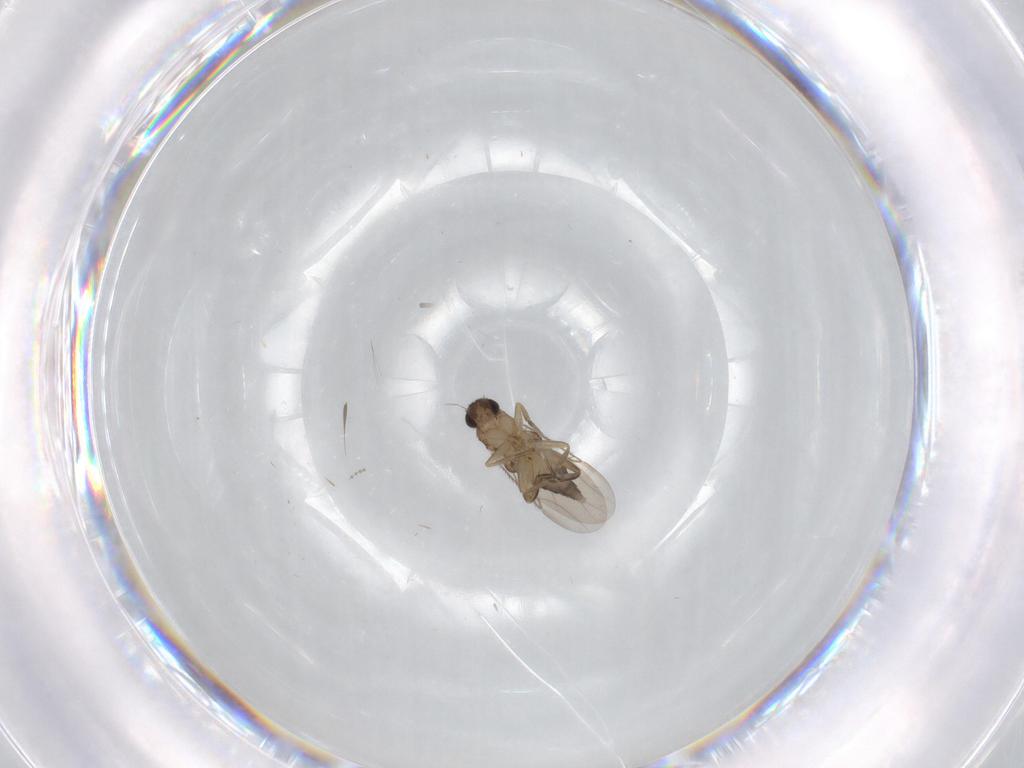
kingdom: Animalia
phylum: Arthropoda
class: Insecta
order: Diptera
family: Phoridae
